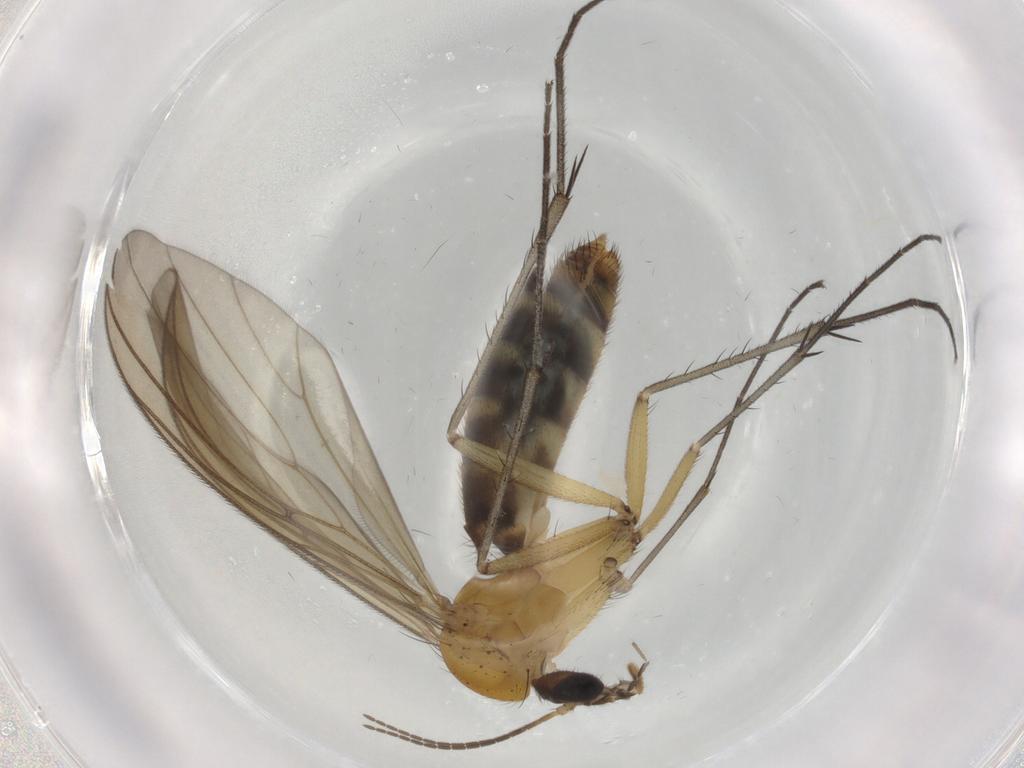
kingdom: Animalia
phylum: Arthropoda
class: Insecta
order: Diptera
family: Mycetophilidae
